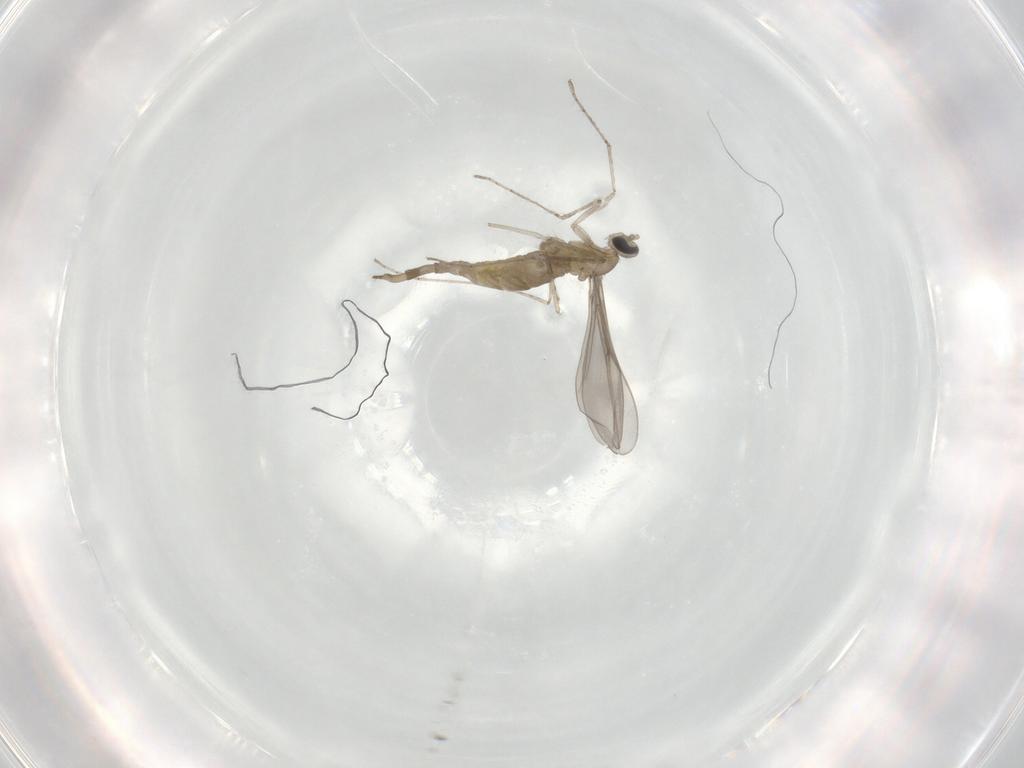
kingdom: Animalia
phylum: Arthropoda
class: Insecta
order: Diptera
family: Cecidomyiidae
